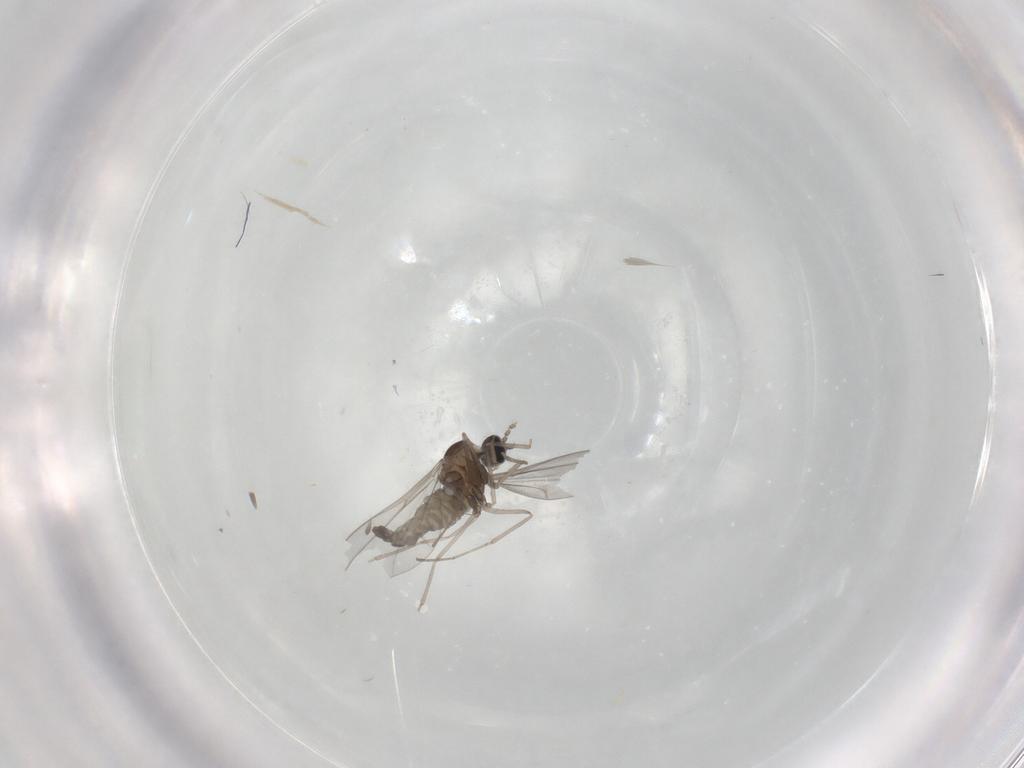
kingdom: Animalia
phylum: Arthropoda
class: Insecta
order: Diptera
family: Cecidomyiidae
